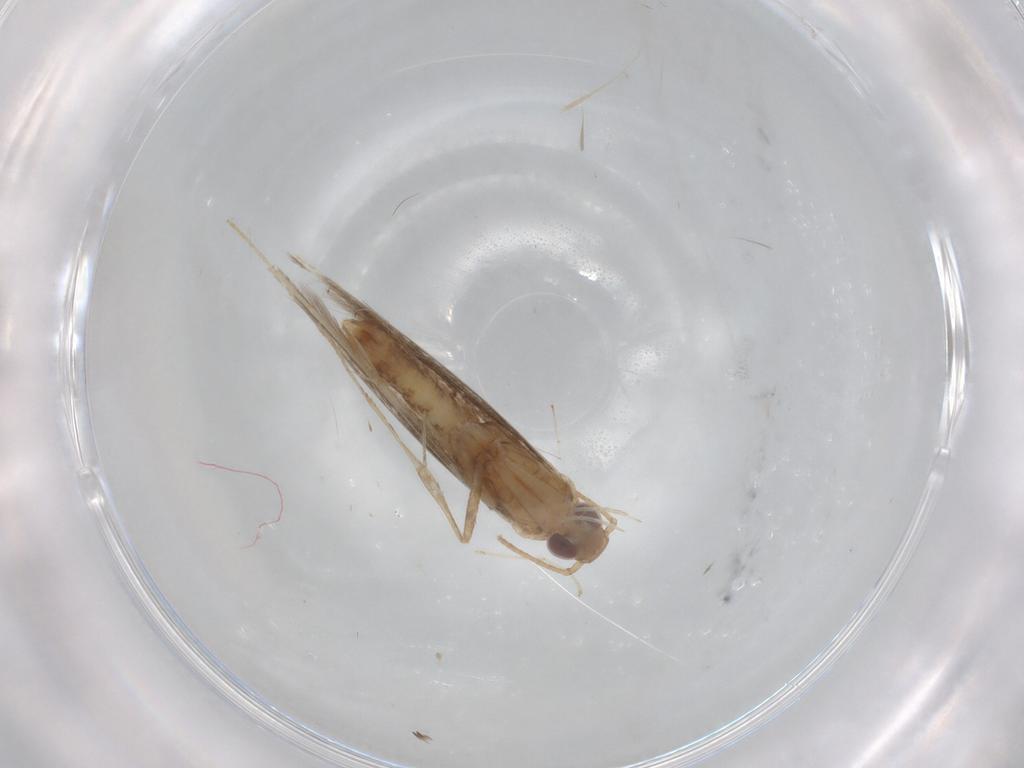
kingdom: Animalia
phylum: Arthropoda
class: Insecta
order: Lepidoptera
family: Gracillariidae
